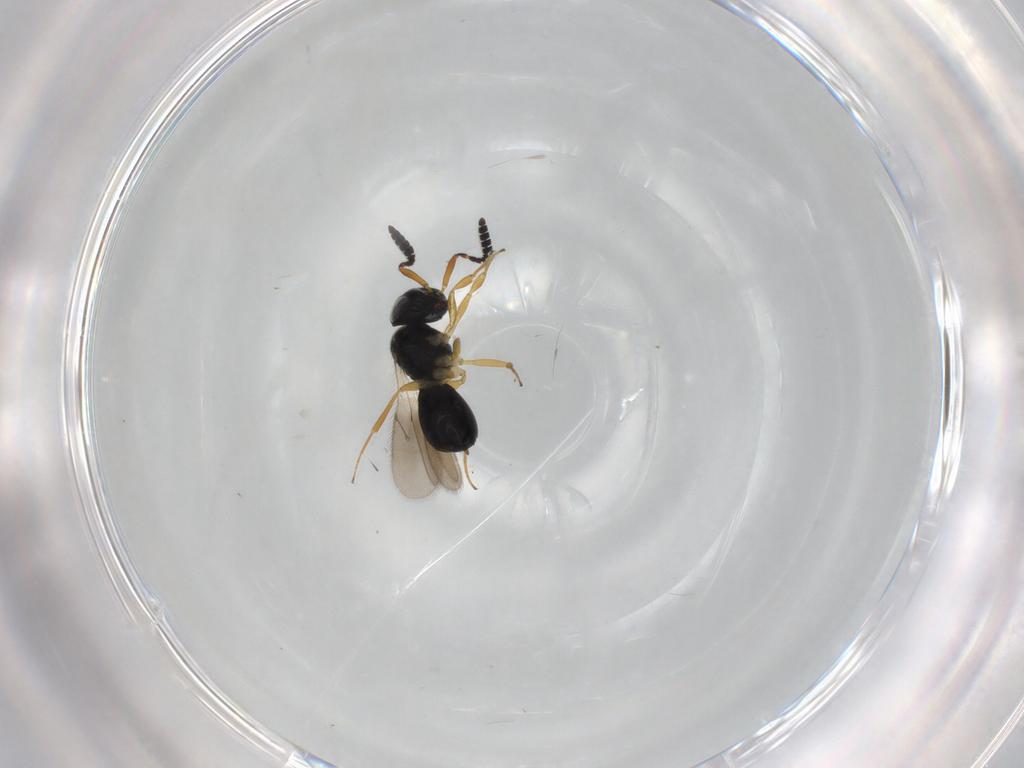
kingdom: Animalia
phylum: Arthropoda
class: Insecta
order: Hymenoptera
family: Scelionidae
